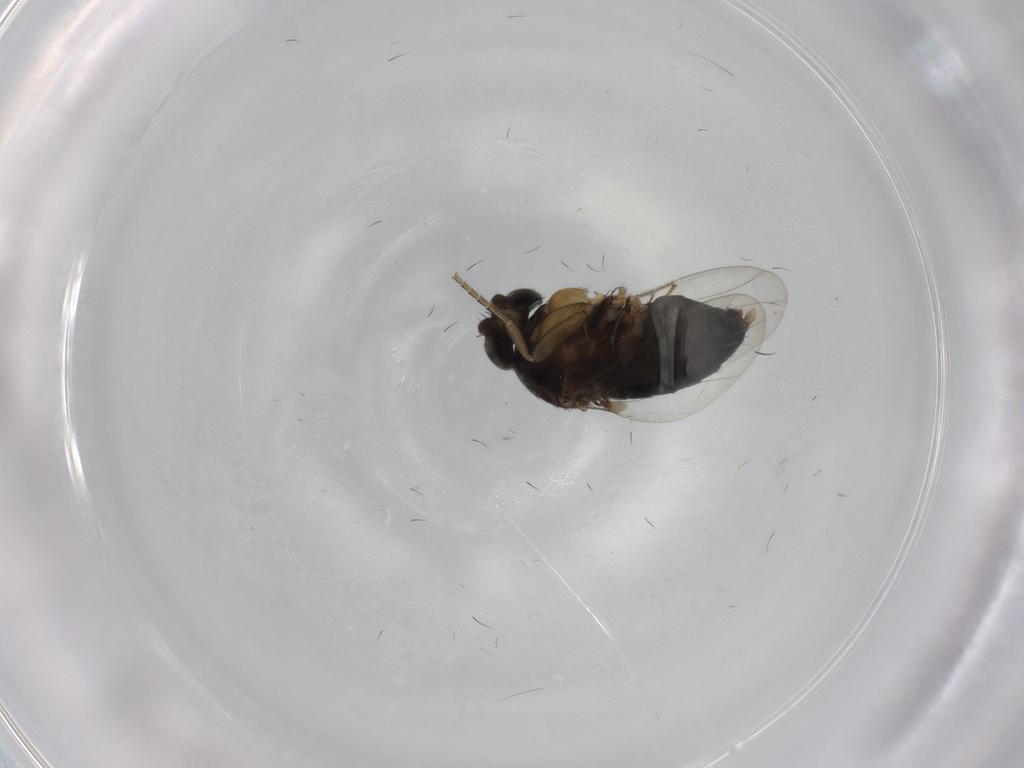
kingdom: Animalia
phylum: Arthropoda
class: Insecta
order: Diptera
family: Phoridae
